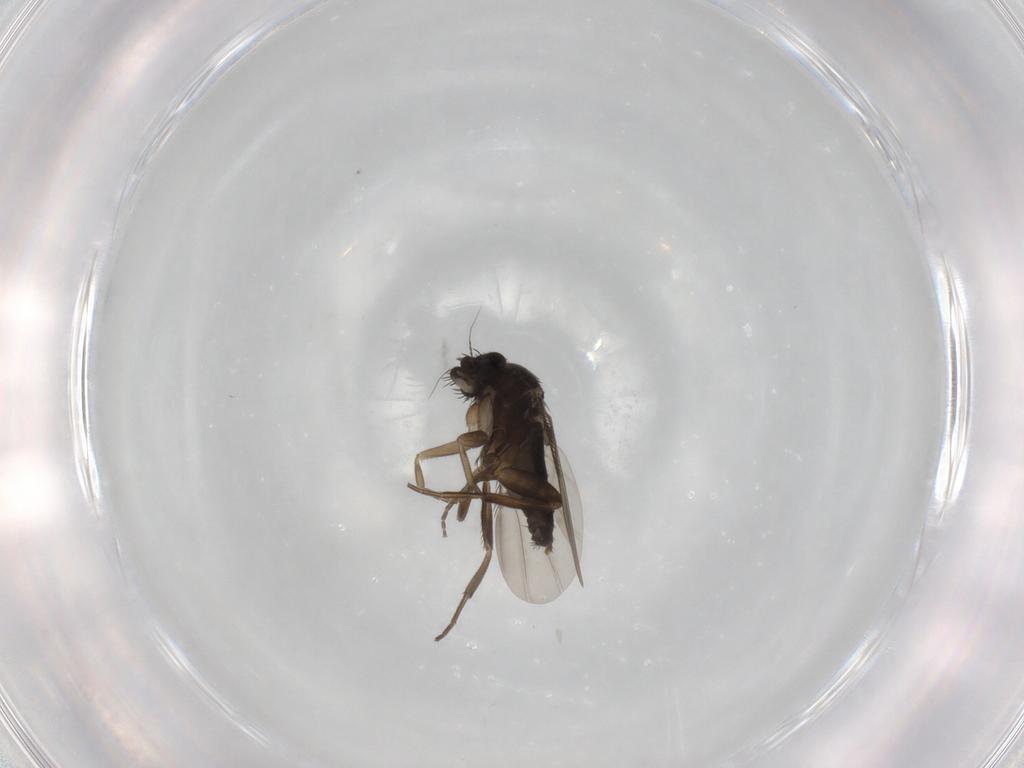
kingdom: Animalia
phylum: Arthropoda
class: Insecta
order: Diptera
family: Phoridae
